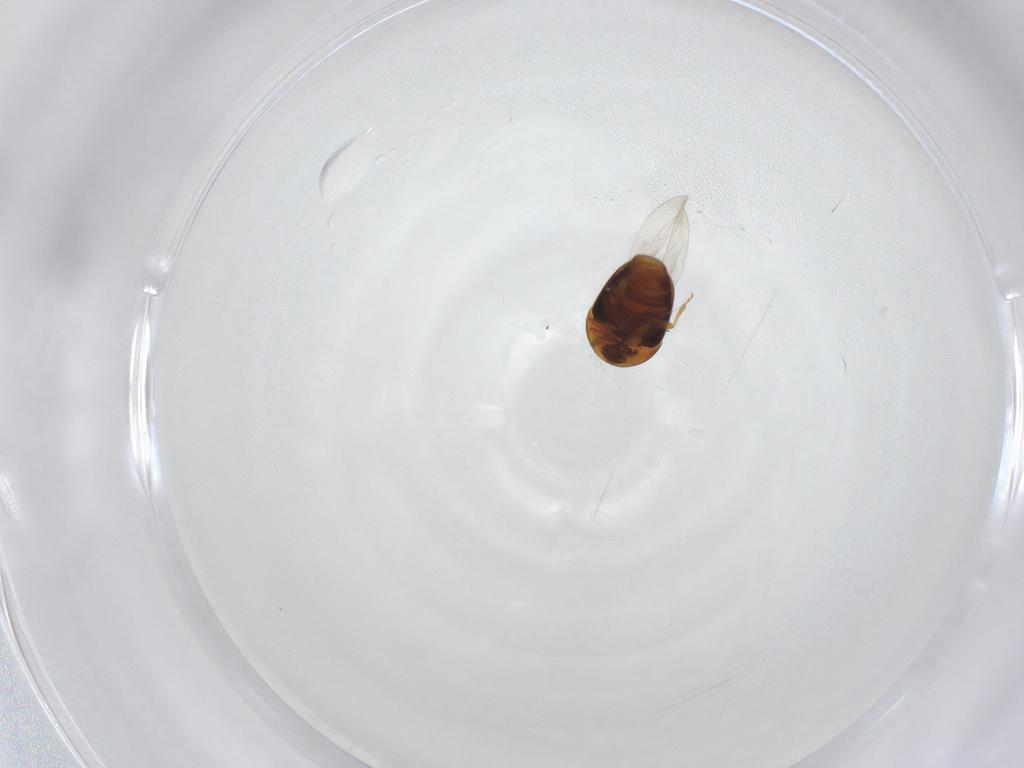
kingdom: Animalia
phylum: Arthropoda
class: Insecta
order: Coleoptera
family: Corylophidae
